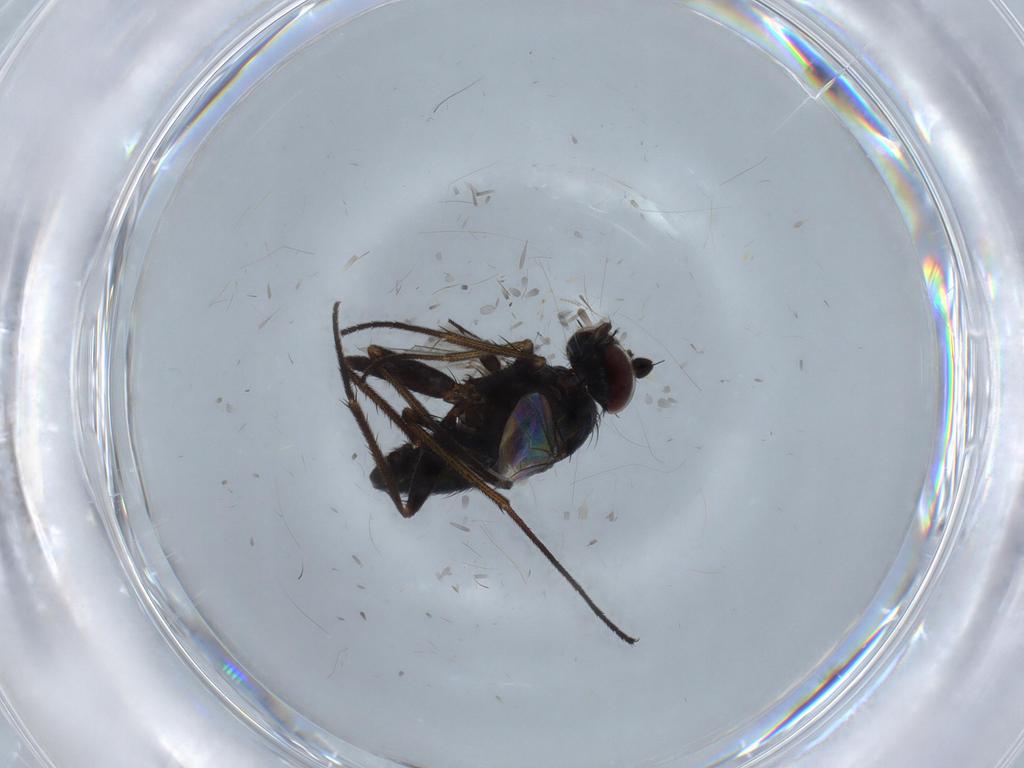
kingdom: Animalia
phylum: Arthropoda
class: Insecta
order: Diptera
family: Dolichopodidae
